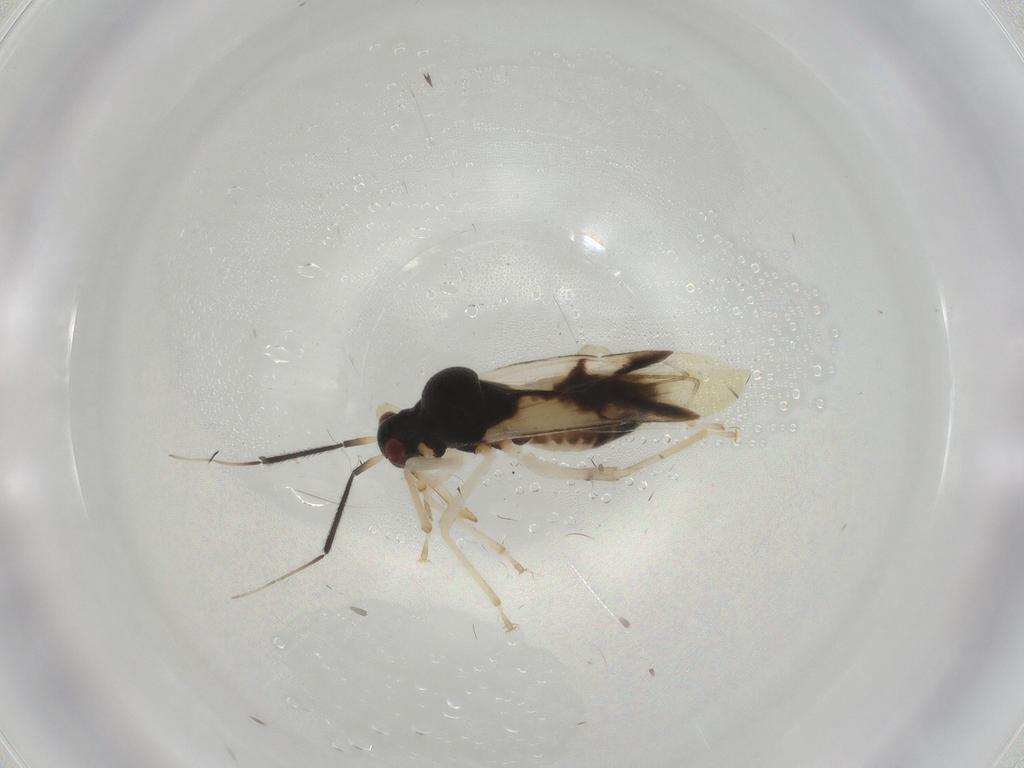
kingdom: Animalia
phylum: Arthropoda
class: Insecta
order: Hemiptera
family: Miridae
